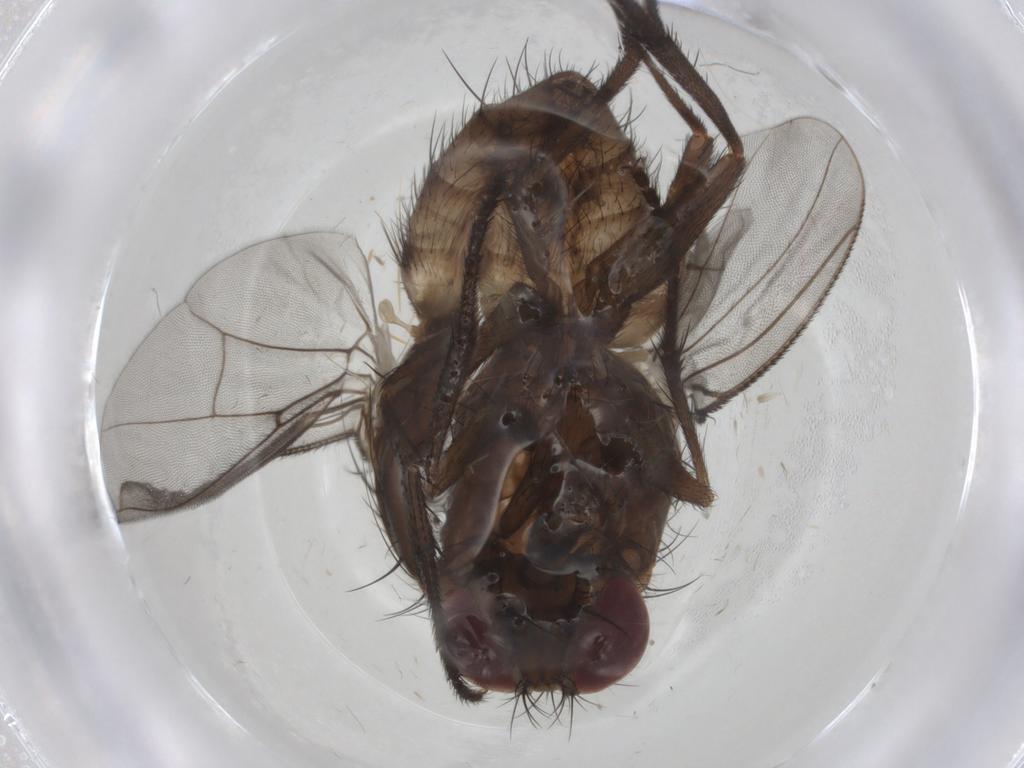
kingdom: Animalia
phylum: Arthropoda
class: Insecta
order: Diptera
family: Muscidae
